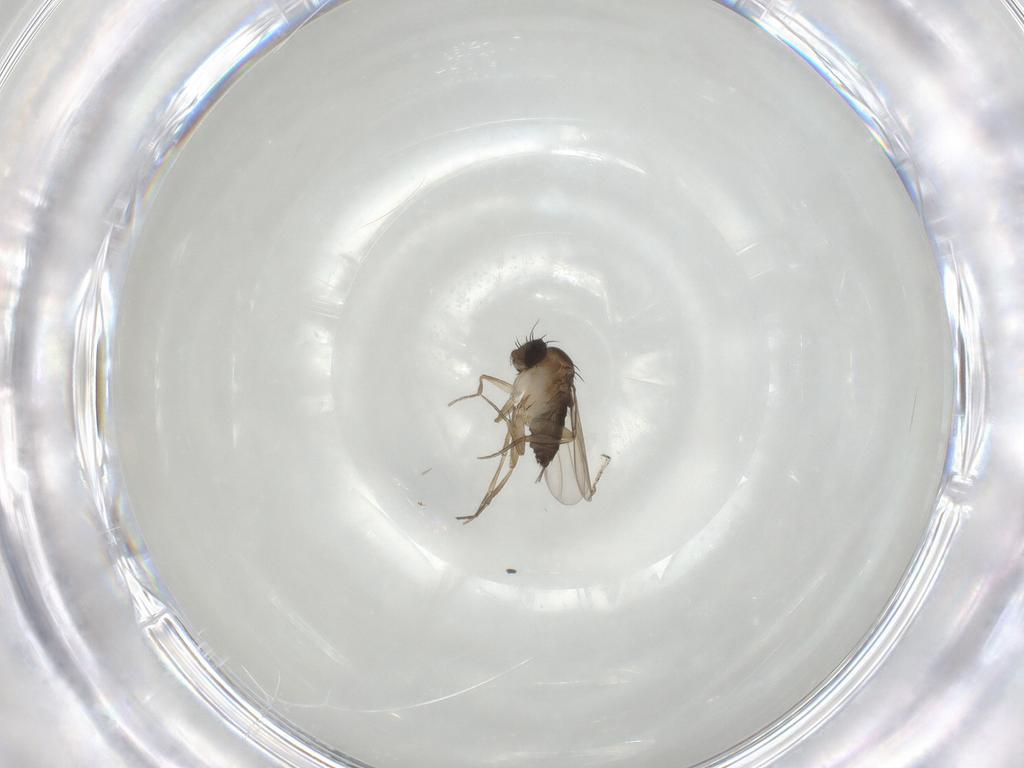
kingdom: Animalia
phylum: Arthropoda
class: Insecta
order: Diptera
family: Phoridae
